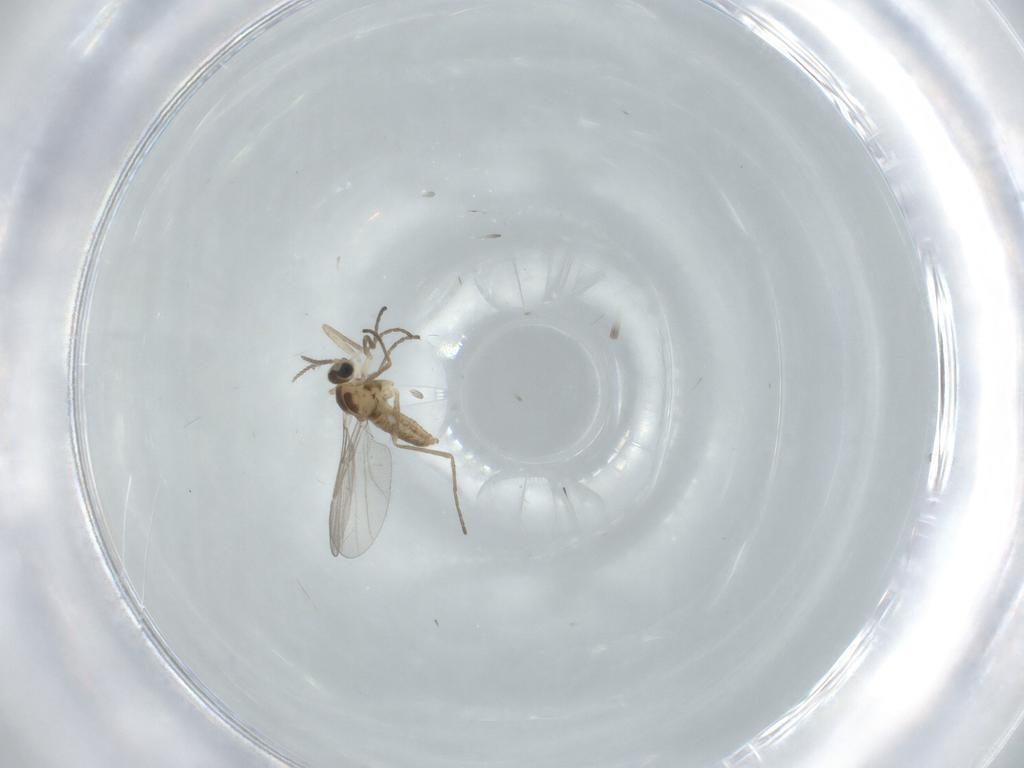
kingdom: Animalia
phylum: Arthropoda
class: Insecta
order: Diptera
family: Cecidomyiidae
